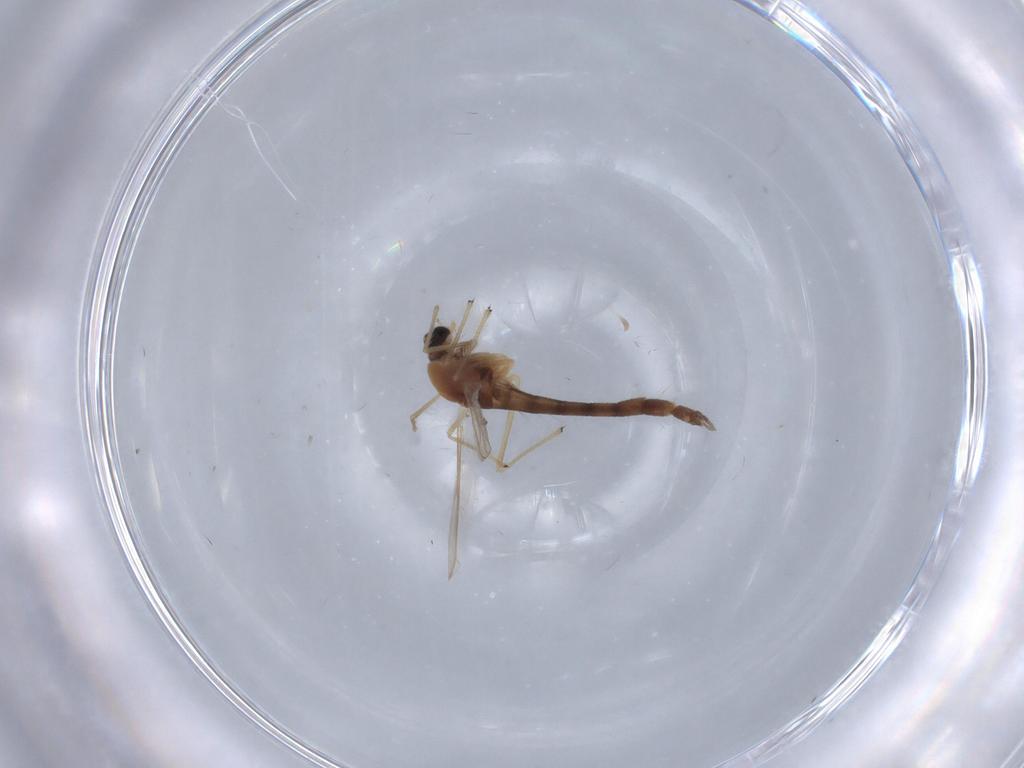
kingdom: Animalia
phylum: Arthropoda
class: Insecta
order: Diptera
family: Chironomidae
